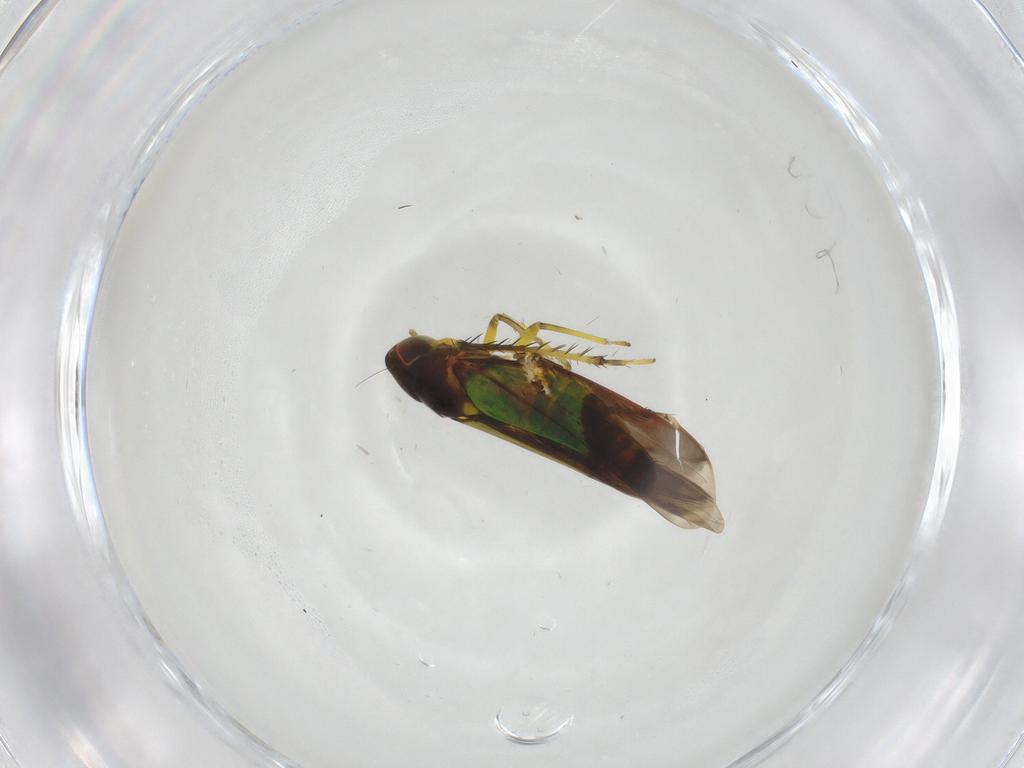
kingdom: Animalia
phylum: Arthropoda
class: Insecta
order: Hemiptera
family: Cicadellidae
